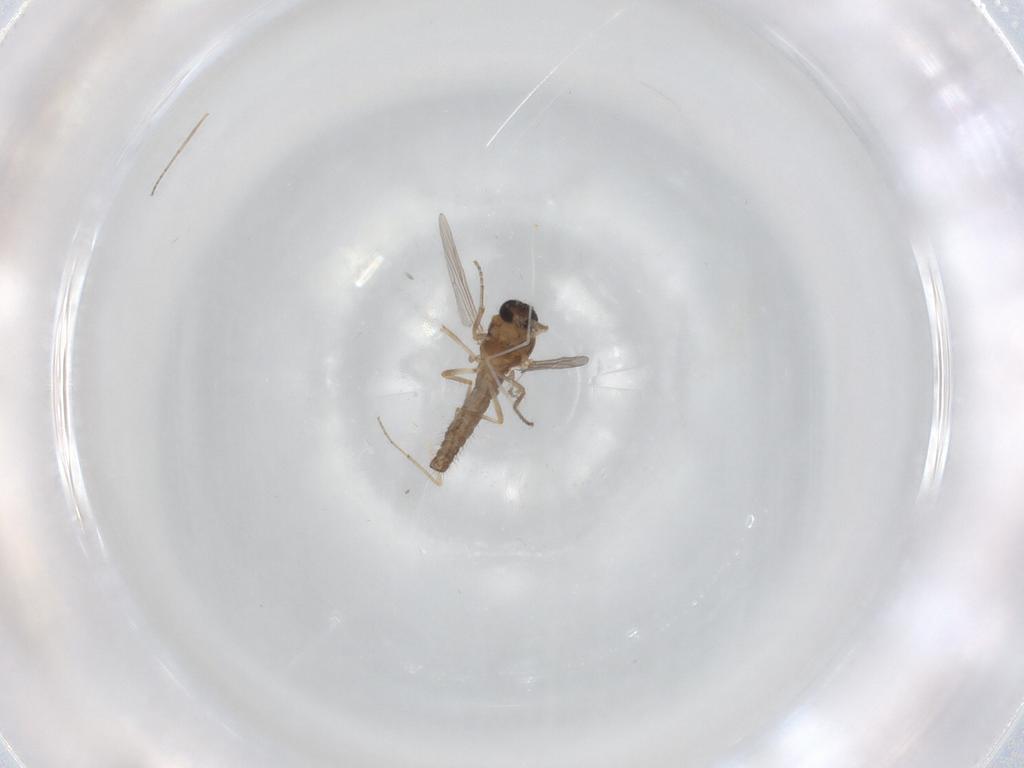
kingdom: Animalia
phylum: Arthropoda
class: Insecta
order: Diptera
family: Ceratopogonidae
